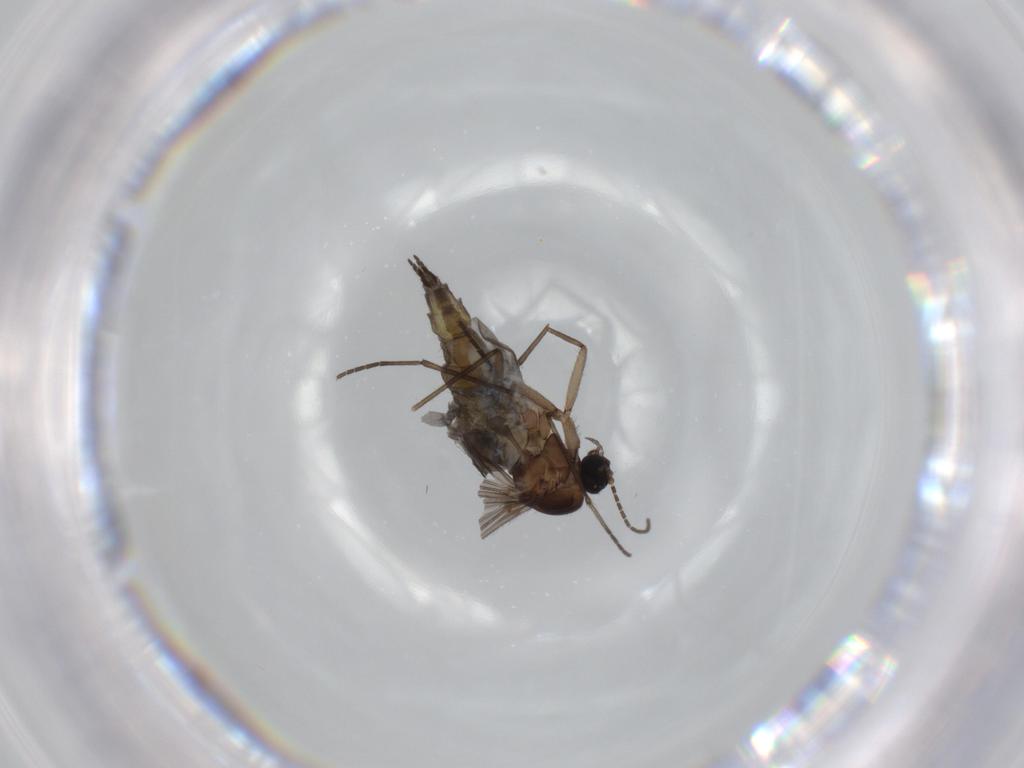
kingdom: Animalia
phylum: Arthropoda
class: Insecta
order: Diptera
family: Sciaridae
